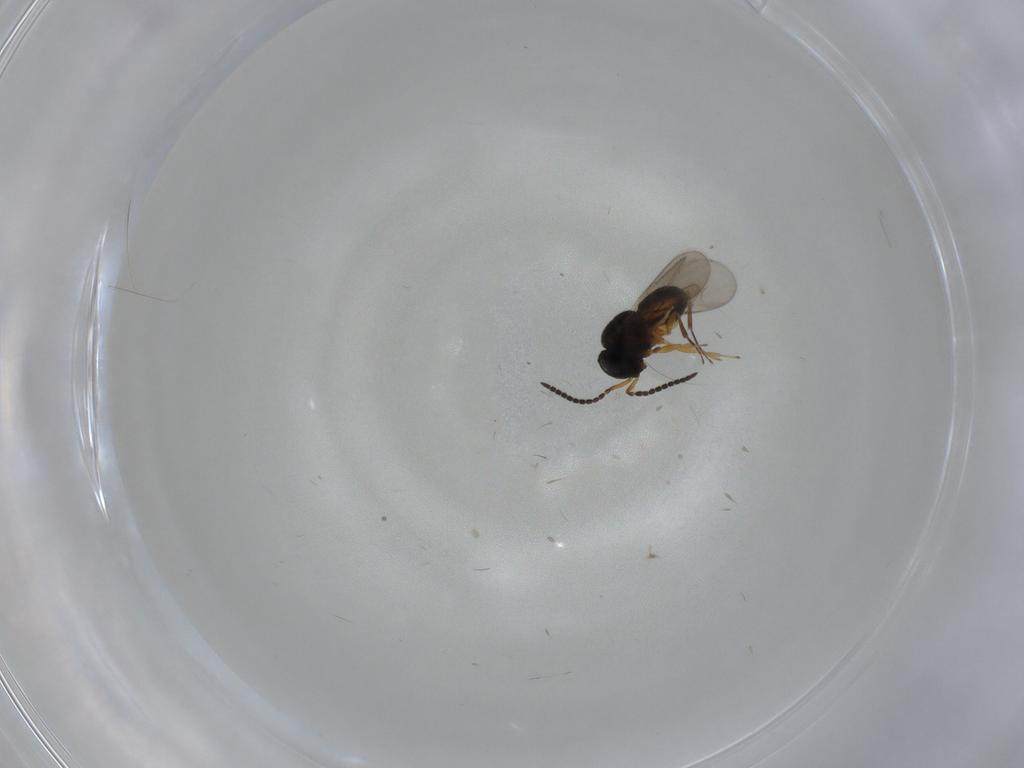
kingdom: Animalia
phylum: Arthropoda
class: Insecta
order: Hymenoptera
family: Scelionidae
